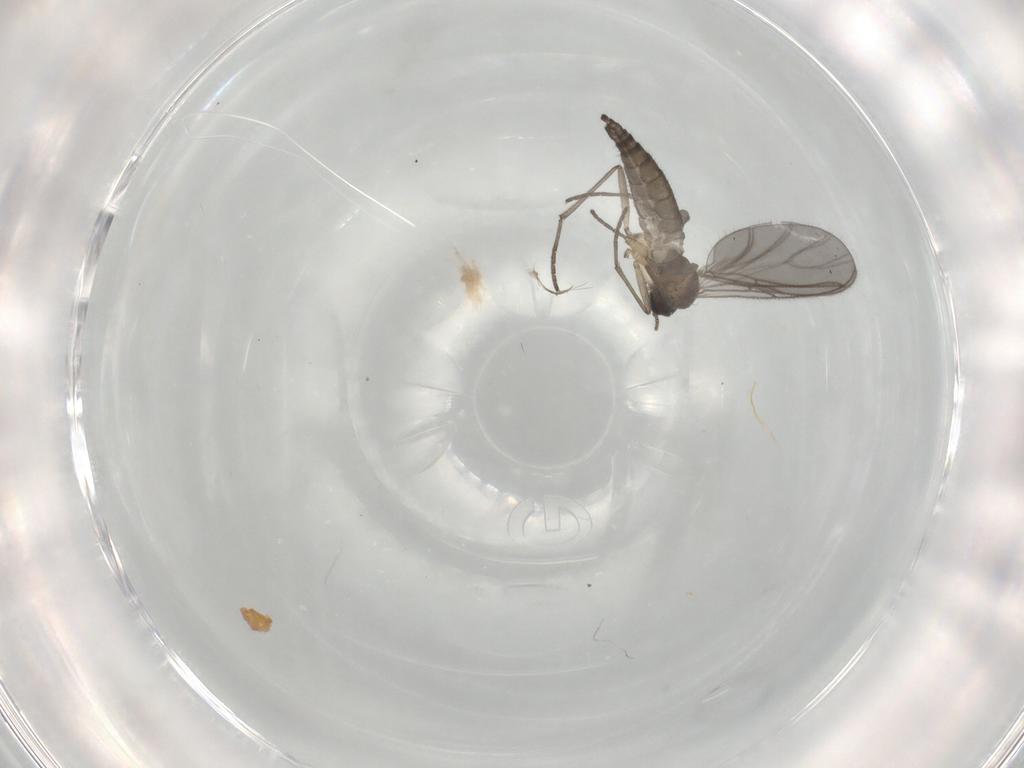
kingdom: Animalia
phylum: Arthropoda
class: Insecta
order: Diptera
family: Sciaridae
